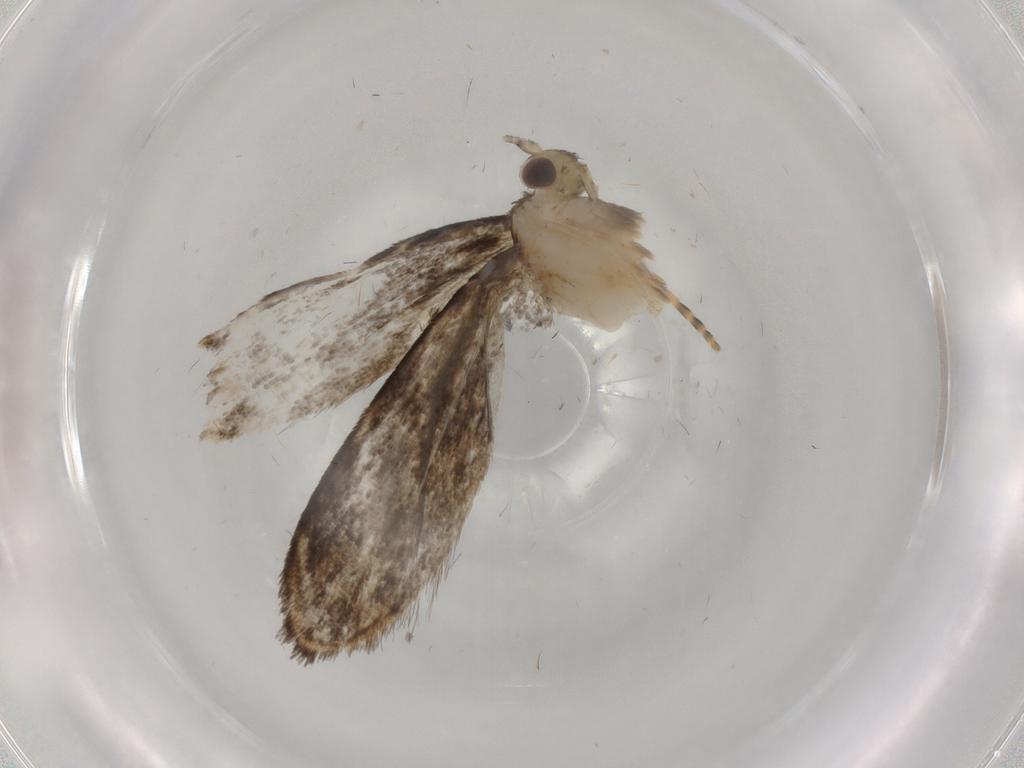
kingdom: Animalia
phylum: Arthropoda
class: Insecta
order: Lepidoptera
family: Dryadaulidae
